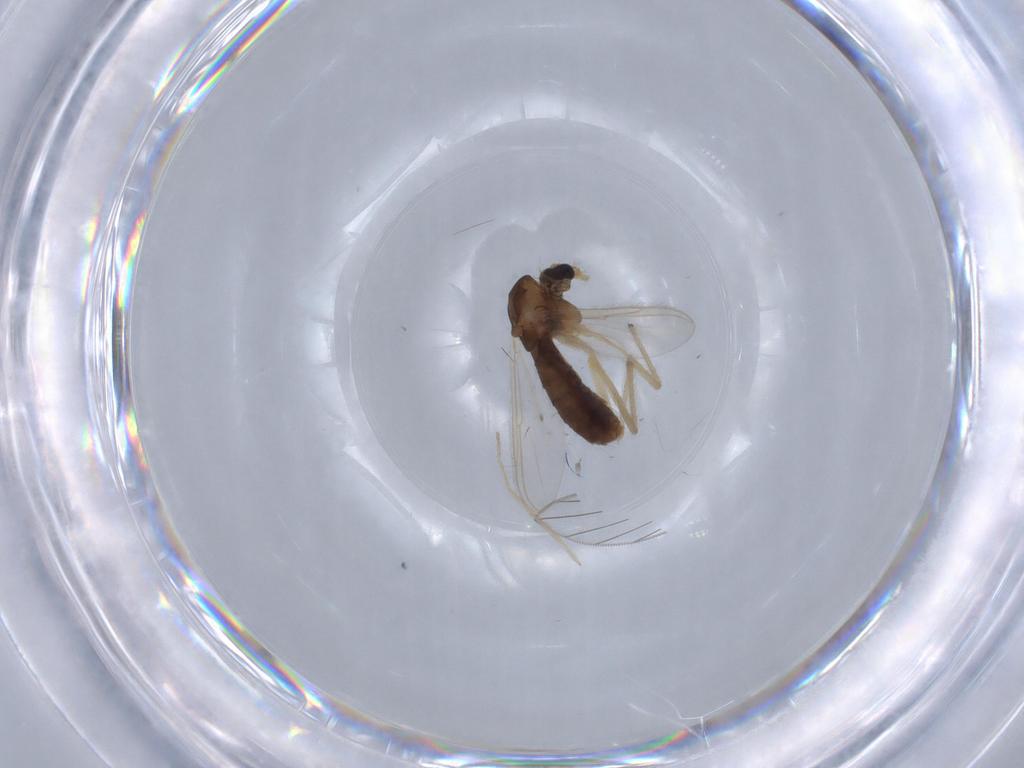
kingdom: Animalia
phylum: Arthropoda
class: Insecta
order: Diptera
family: Chironomidae
